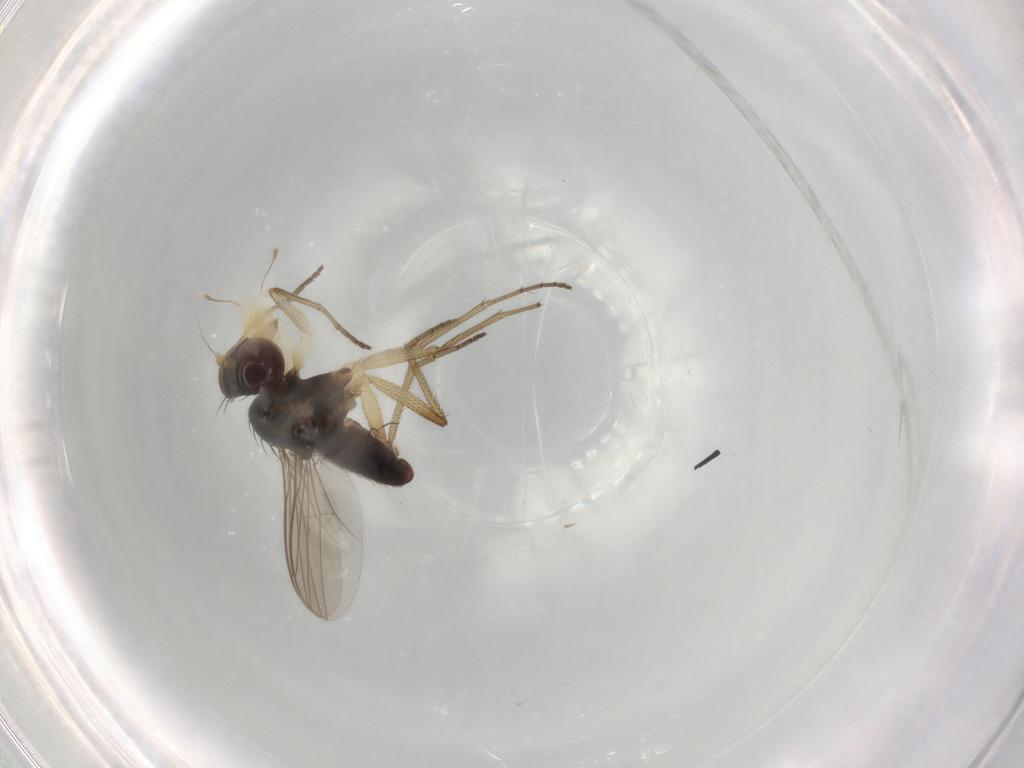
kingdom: Animalia
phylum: Arthropoda
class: Insecta
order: Diptera
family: Dolichopodidae
